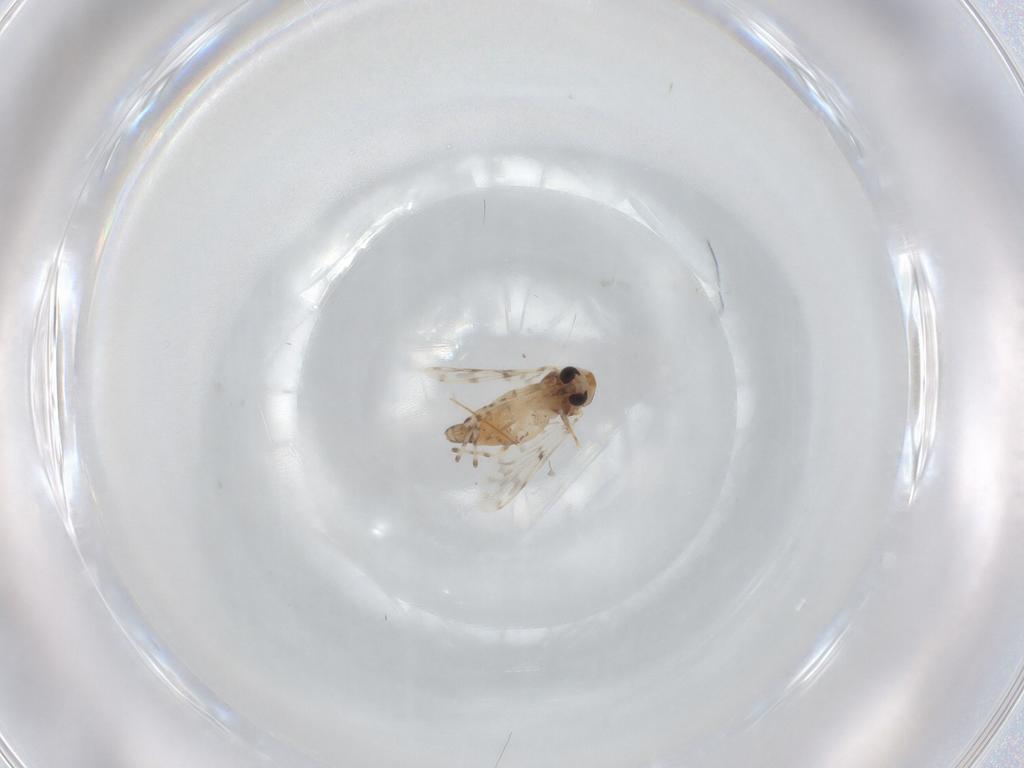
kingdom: Animalia
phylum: Arthropoda
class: Insecta
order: Diptera
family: Chironomidae
